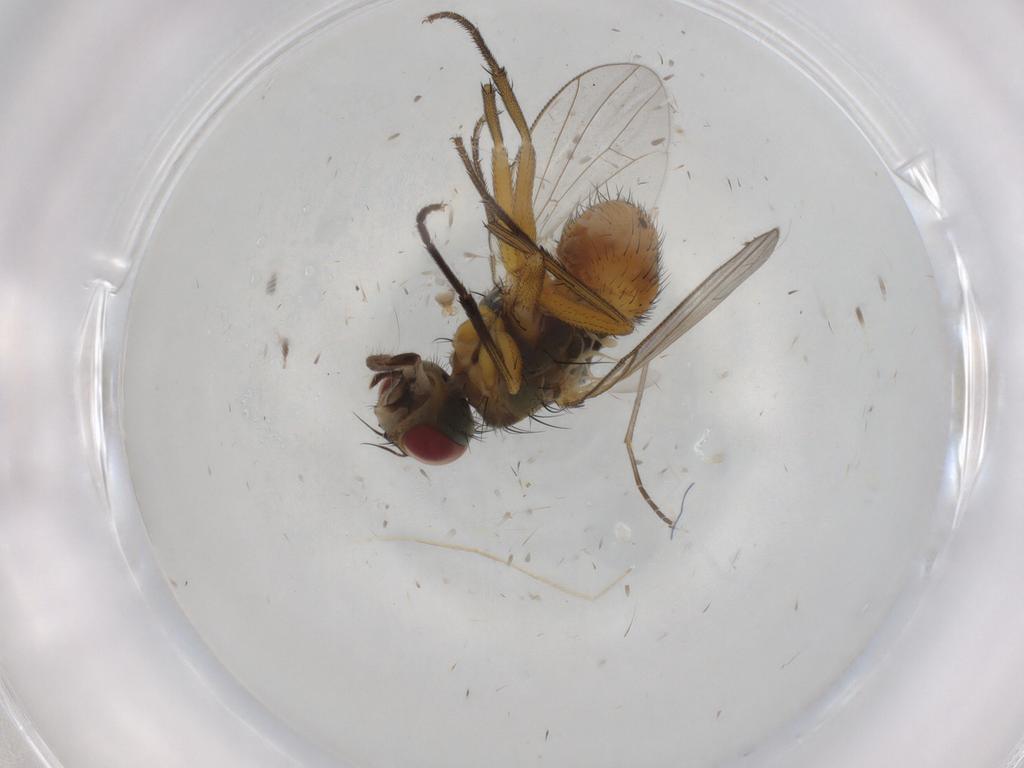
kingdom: Animalia
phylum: Arthropoda
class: Insecta
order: Diptera
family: Muscidae
